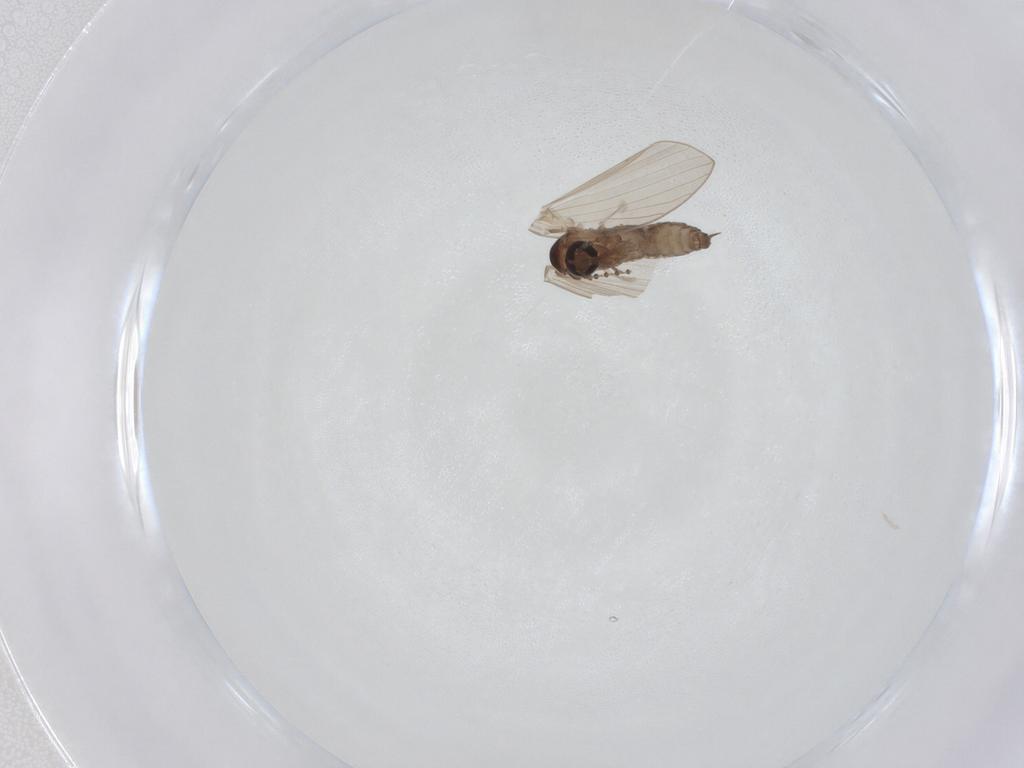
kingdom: Animalia
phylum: Arthropoda
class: Insecta
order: Diptera
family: Psychodidae
